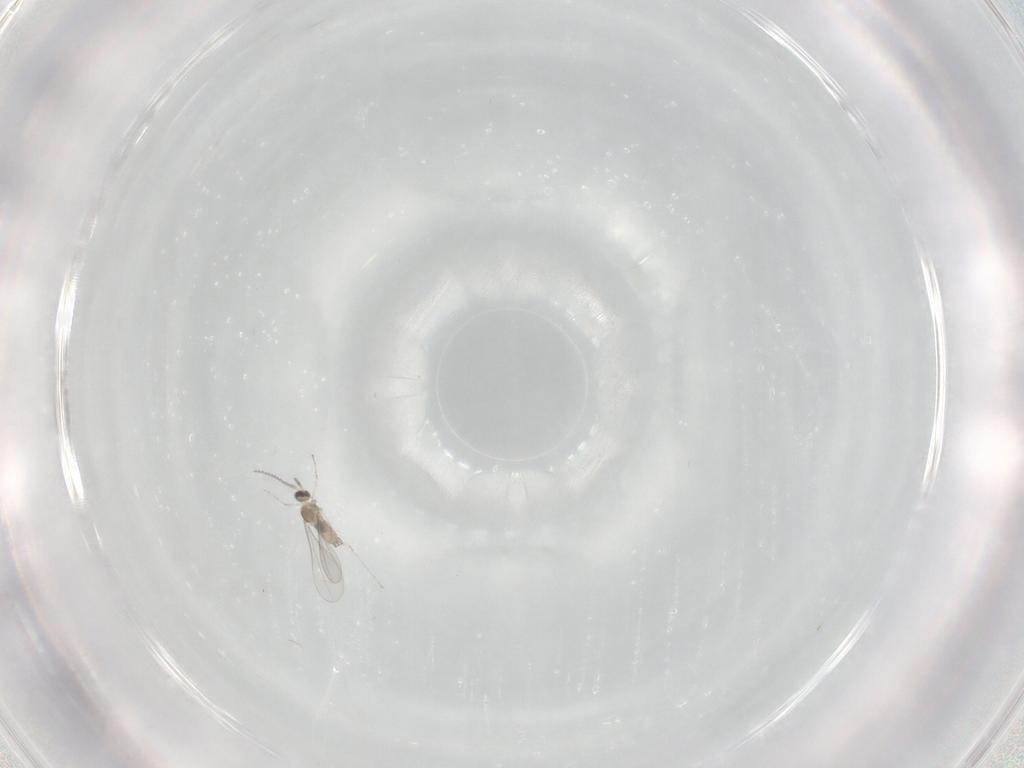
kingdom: Animalia
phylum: Arthropoda
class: Insecta
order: Diptera
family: Cecidomyiidae
